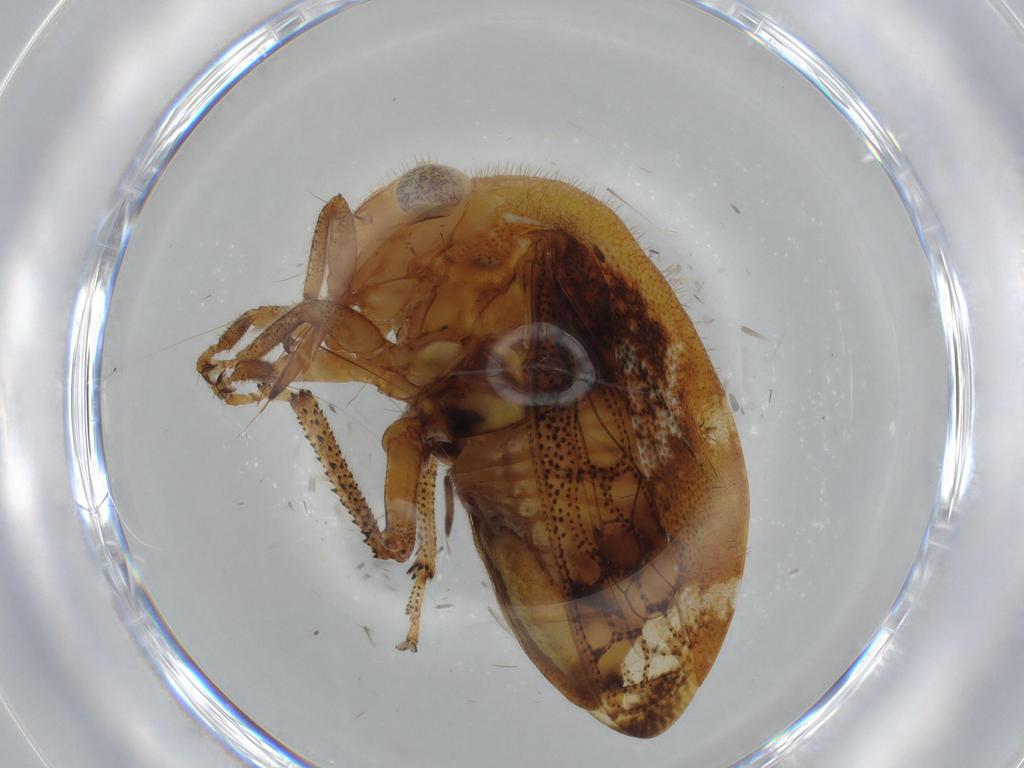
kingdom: Animalia
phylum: Arthropoda
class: Insecta
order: Hemiptera
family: Membracidae
